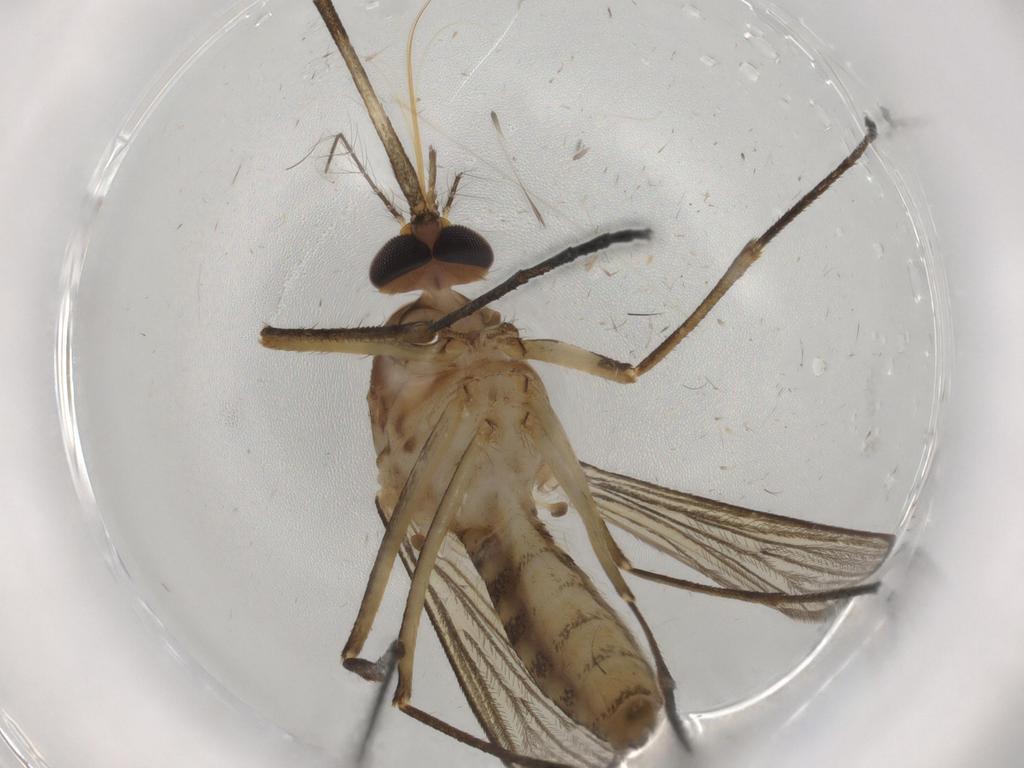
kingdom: Animalia
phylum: Arthropoda
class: Insecta
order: Diptera
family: Culicidae
